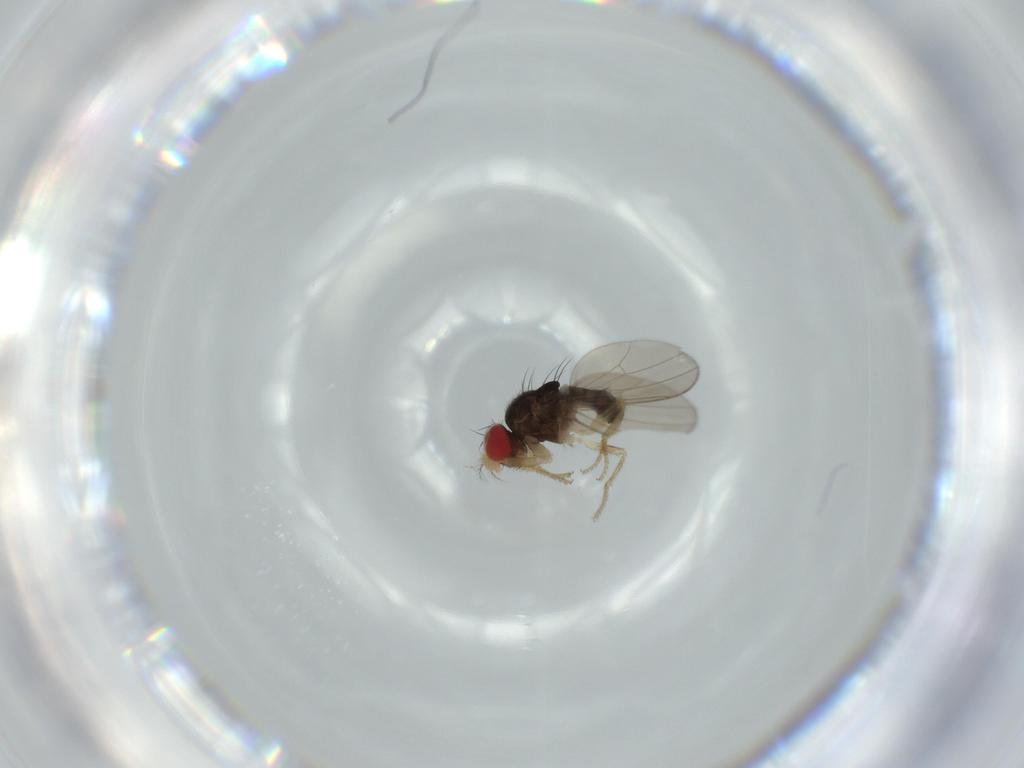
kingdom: Animalia
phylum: Arthropoda
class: Insecta
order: Diptera
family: Drosophilidae
